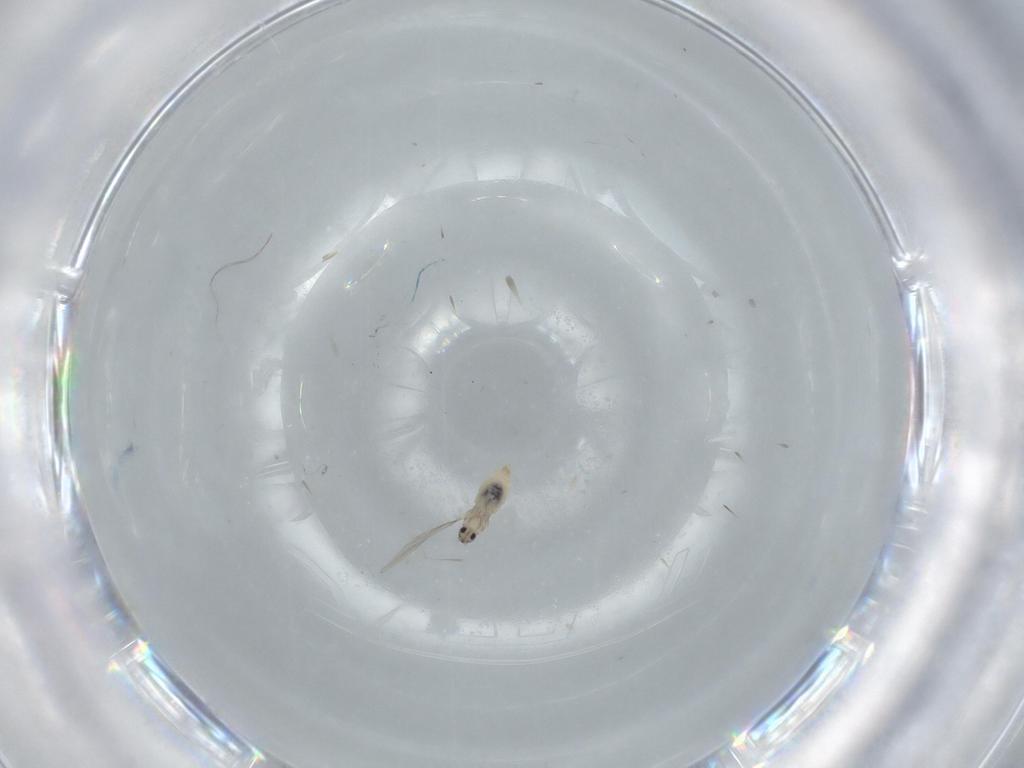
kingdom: Animalia
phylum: Arthropoda
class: Insecta
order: Diptera
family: Cecidomyiidae
